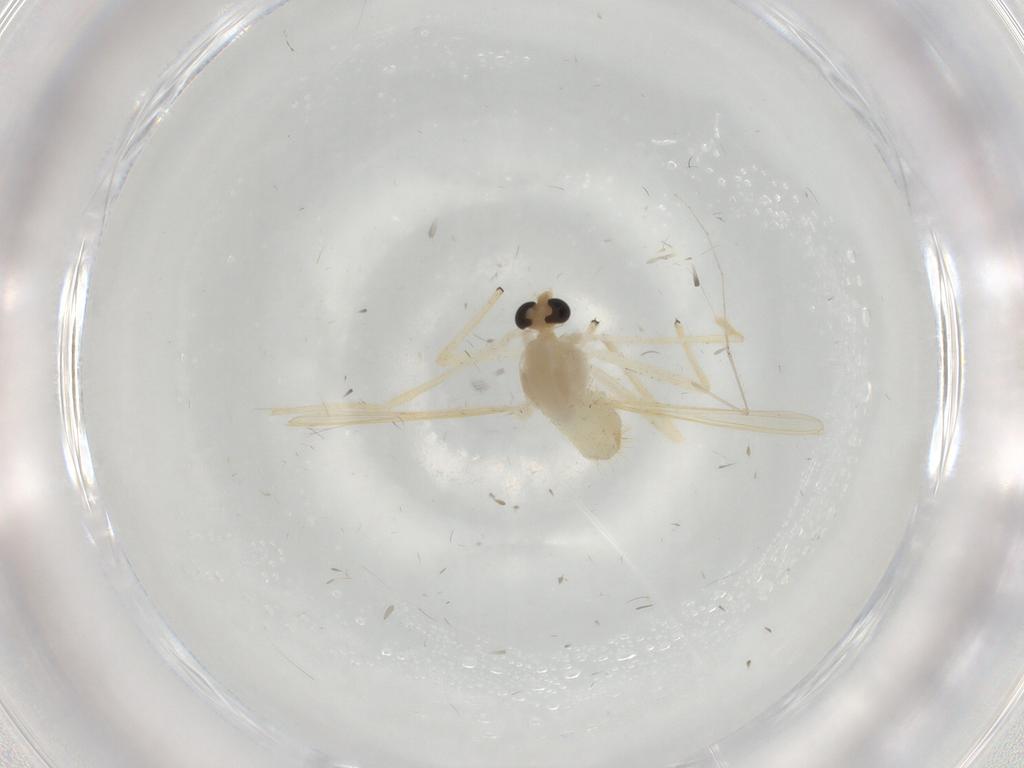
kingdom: Animalia
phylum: Arthropoda
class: Insecta
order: Diptera
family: Chironomidae
